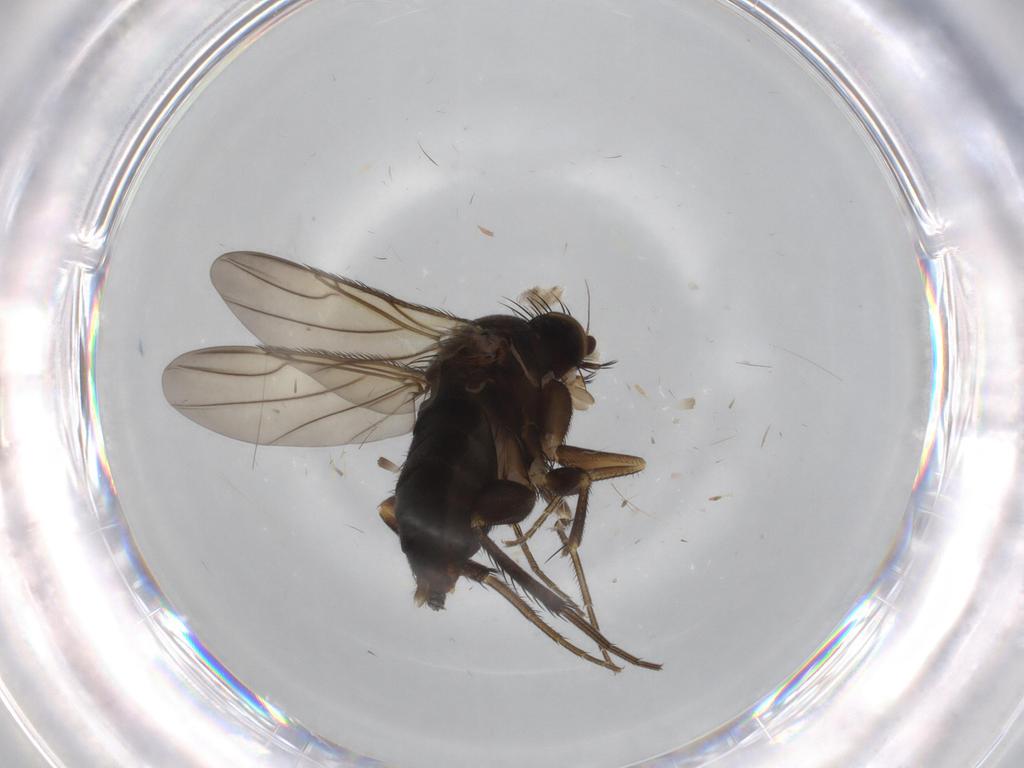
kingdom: Animalia
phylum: Arthropoda
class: Insecta
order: Diptera
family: Phoridae
